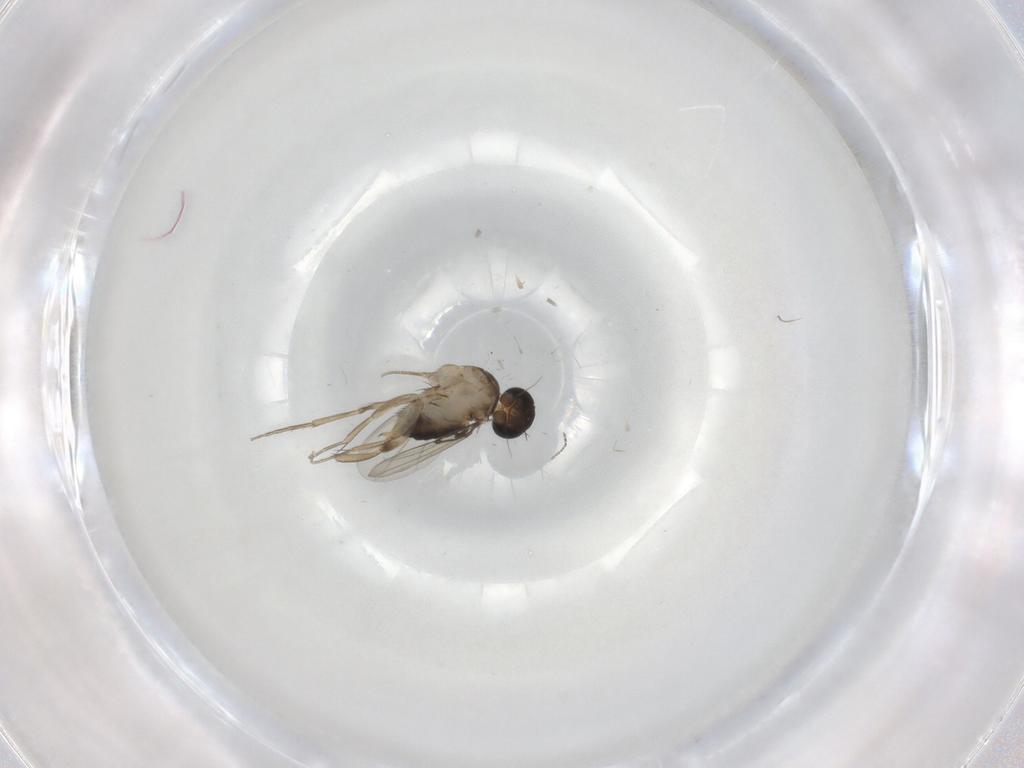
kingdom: Animalia
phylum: Arthropoda
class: Insecta
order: Diptera
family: Phoridae
